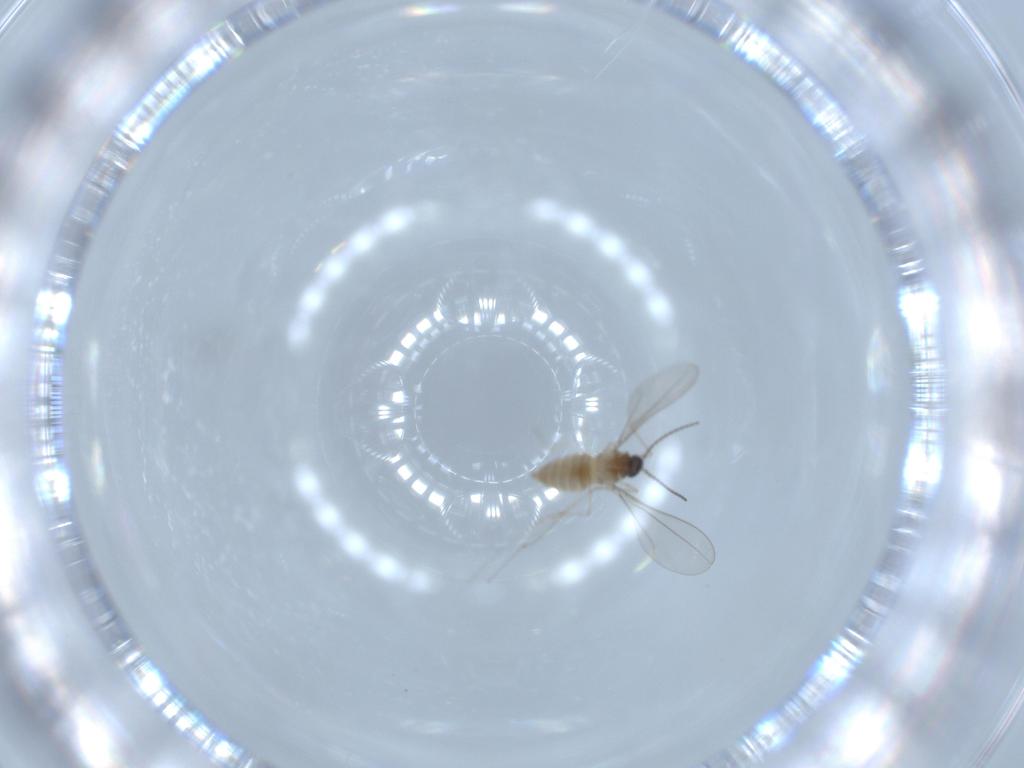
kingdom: Animalia
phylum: Arthropoda
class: Insecta
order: Diptera
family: Cecidomyiidae
